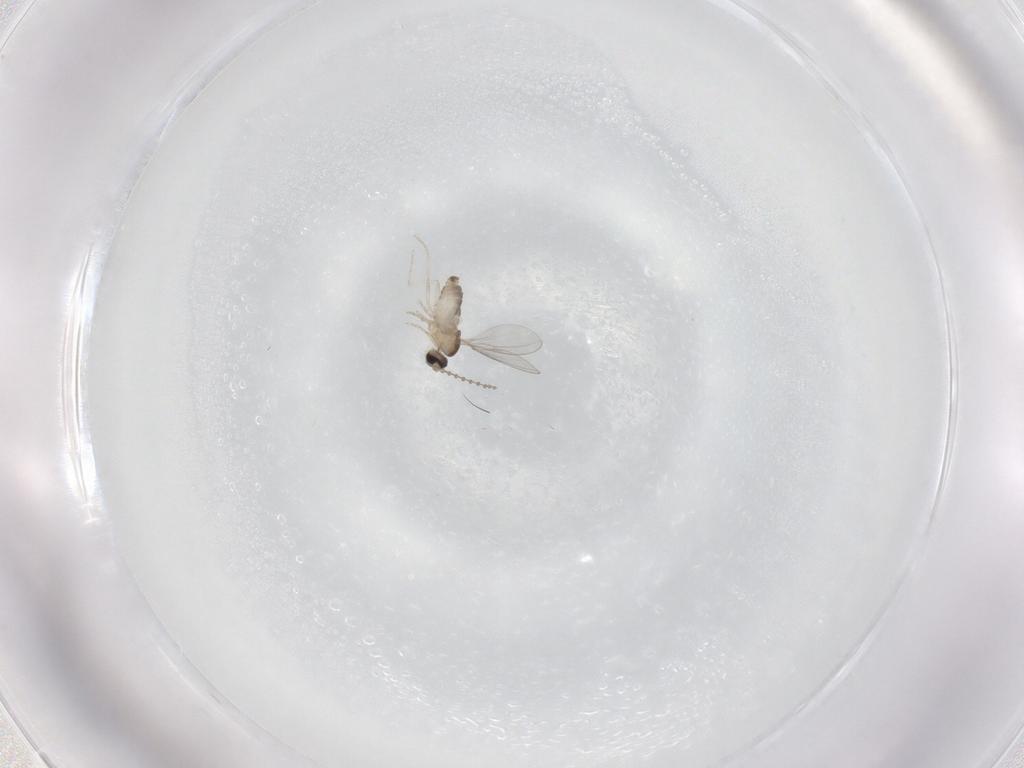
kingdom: Animalia
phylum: Arthropoda
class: Insecta
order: Diptera
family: Cecidomyiidae
